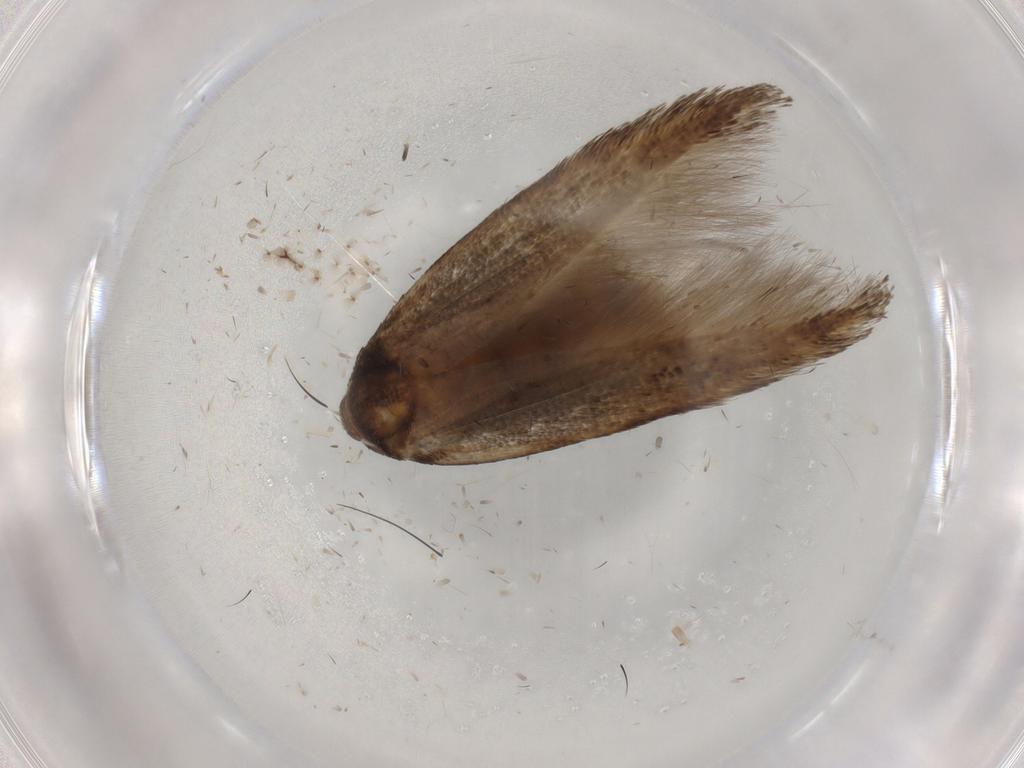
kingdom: Animalia
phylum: Arthropoda
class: Insecta
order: Lepidoptera
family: Cosmopterigidae
